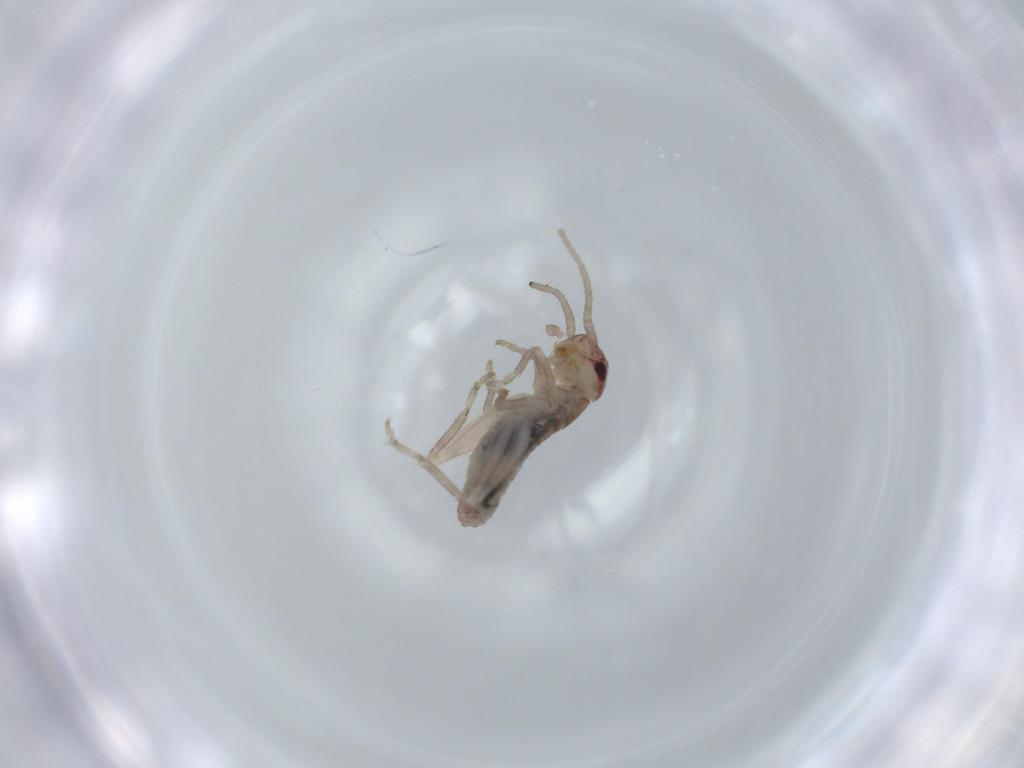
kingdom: Animalia
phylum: Arthropoda
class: Insecta
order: Orthoptera
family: Mogoplistidae
